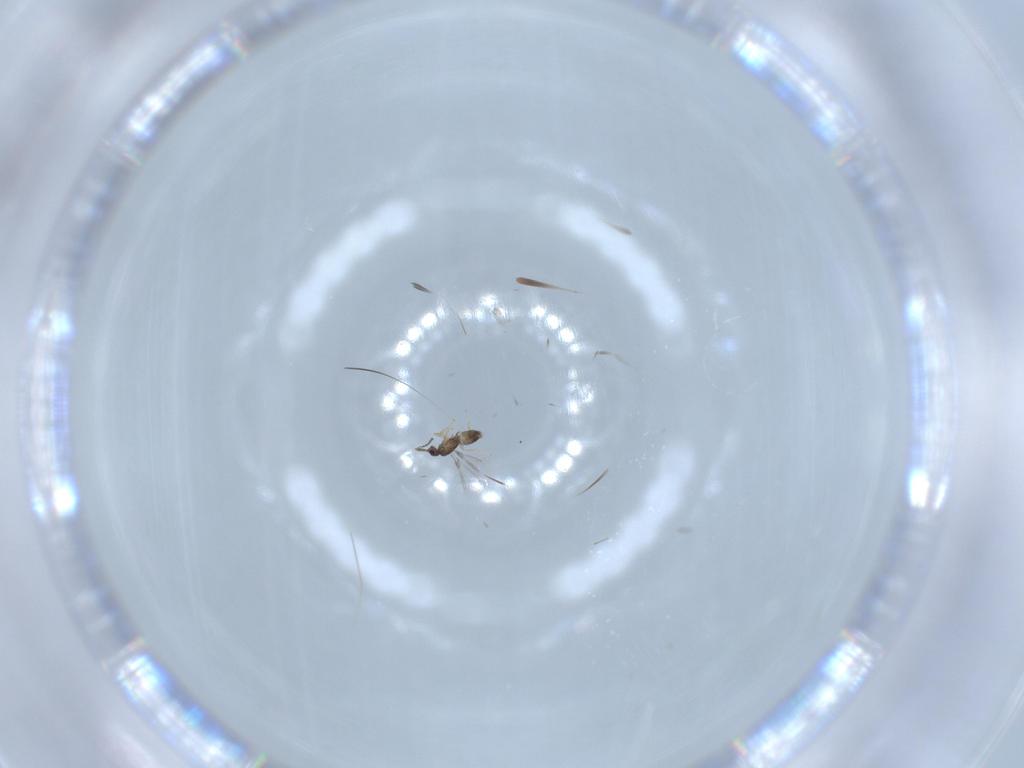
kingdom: Animalia
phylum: Arthropoda
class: Insecta
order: Hymenoptera
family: Mymaridae
